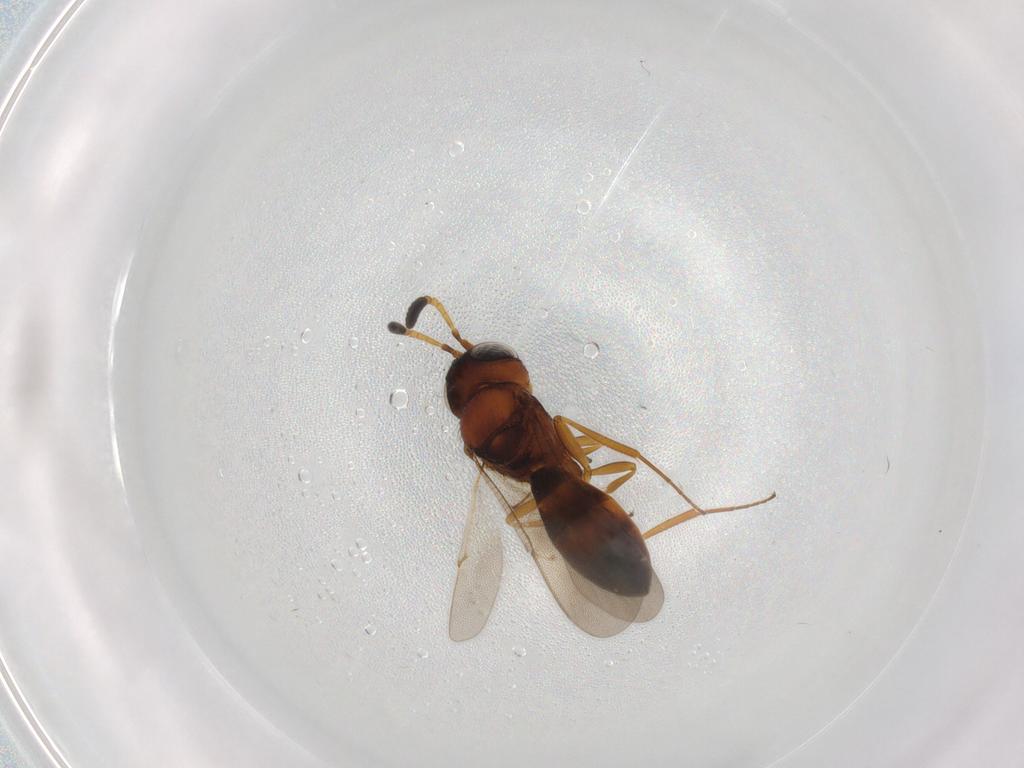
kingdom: Animalia
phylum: Arthropoda
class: Insecta
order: Hymenoptera
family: Scelionidae
